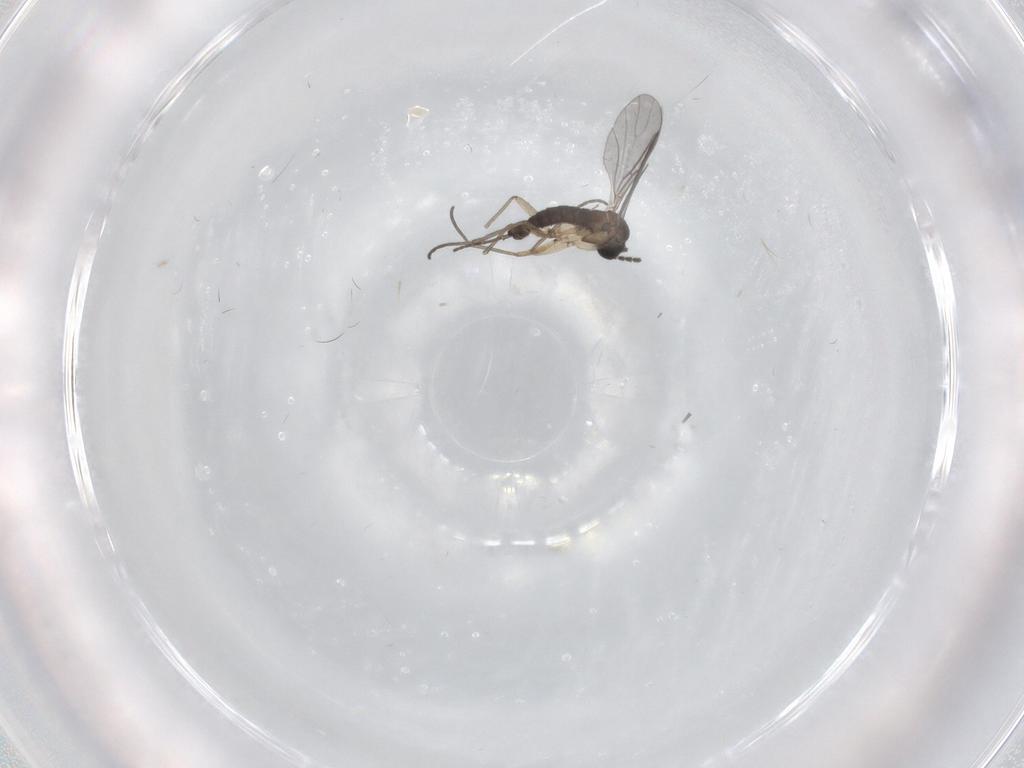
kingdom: Animalia
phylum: Arthropoda
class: Insecta
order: Diptera
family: Sciaridae
